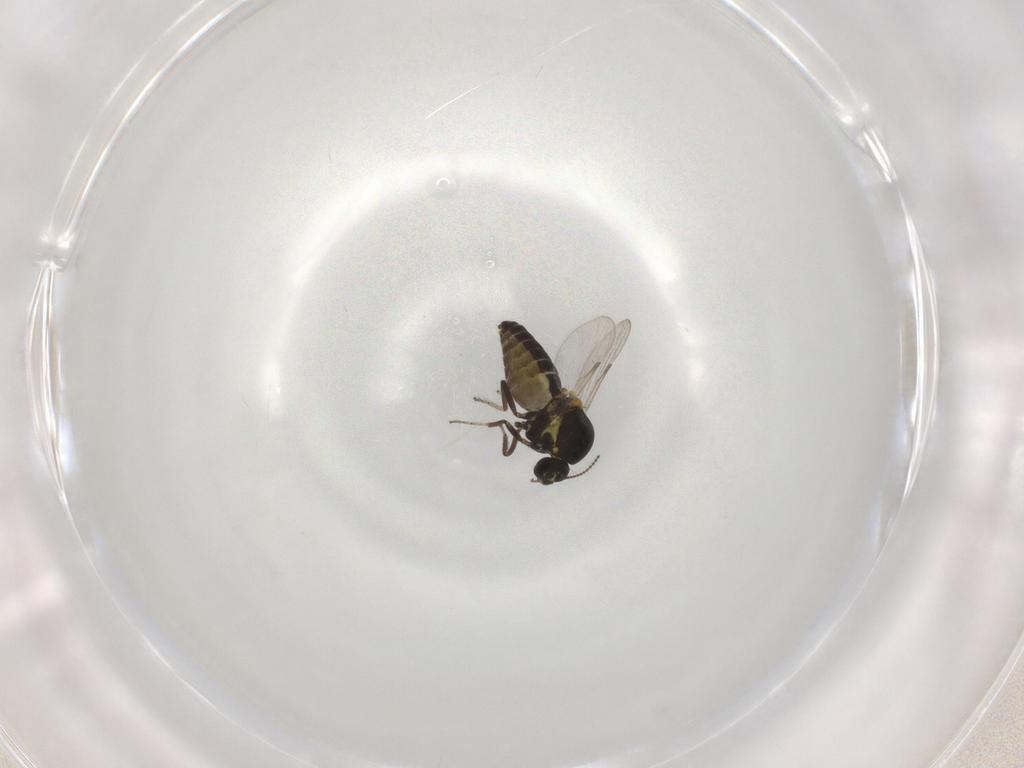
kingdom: Animalia
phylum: Arthropoda
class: Insecta
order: Diptera
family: Ceratopogonidae
